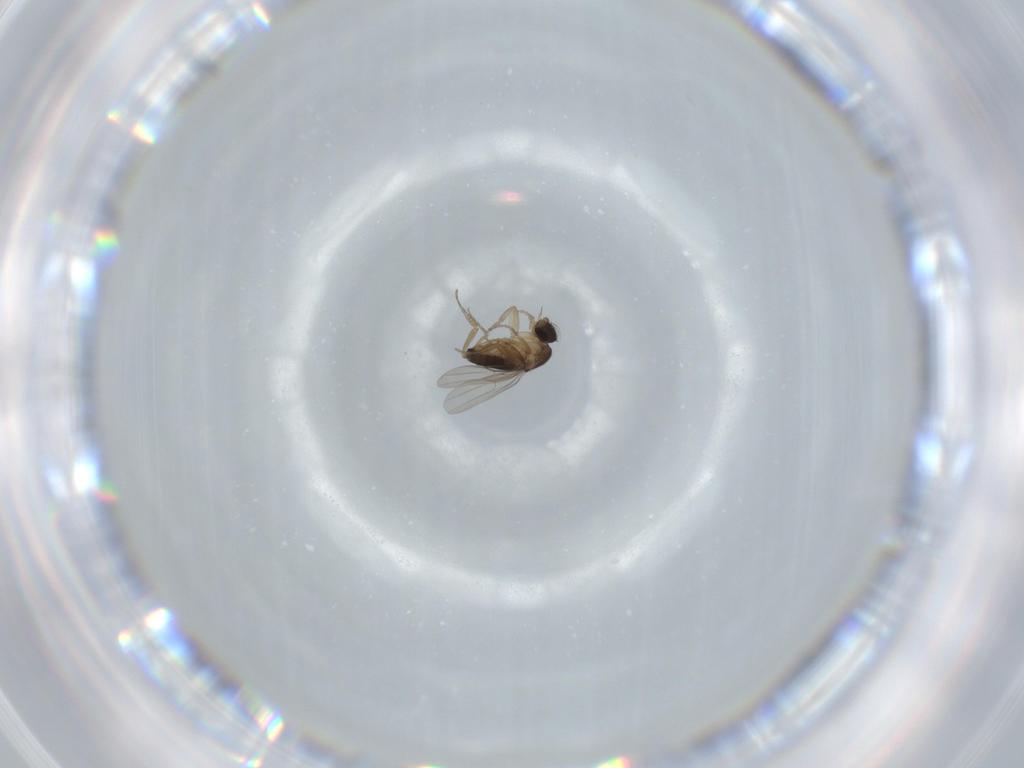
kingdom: Animalia
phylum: Arthropoda
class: Insecta
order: Diptera
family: Phoridae
